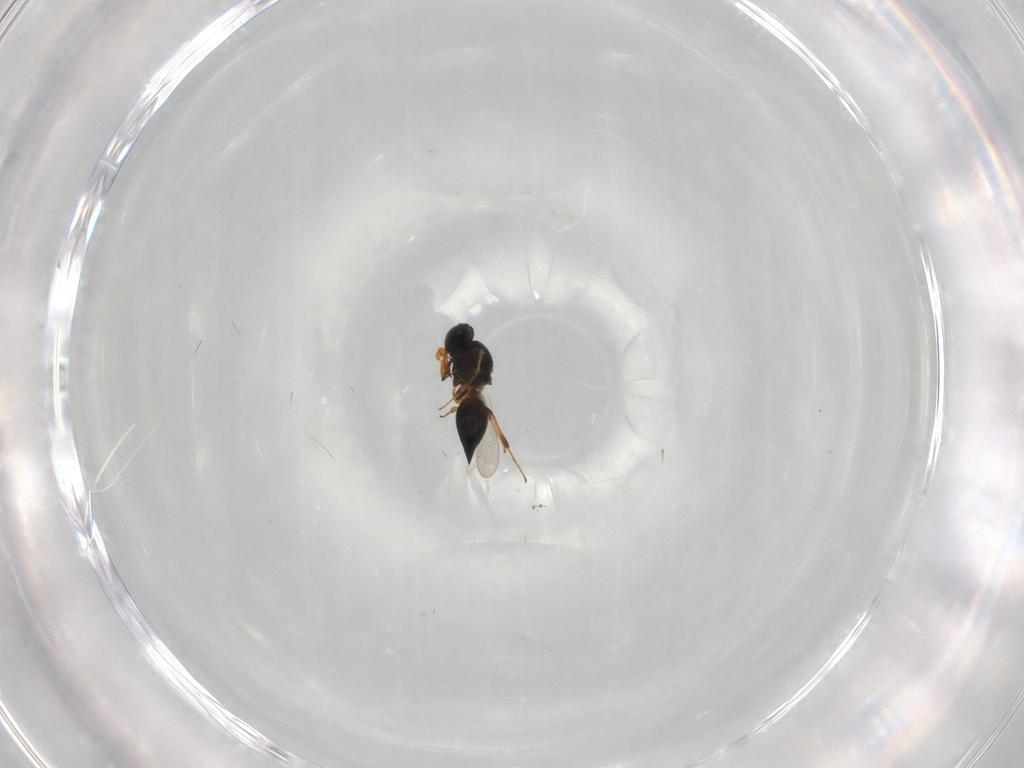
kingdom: Animalia
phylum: Arthropoda
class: Insecta
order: Hymenoptera
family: Platygastridae
